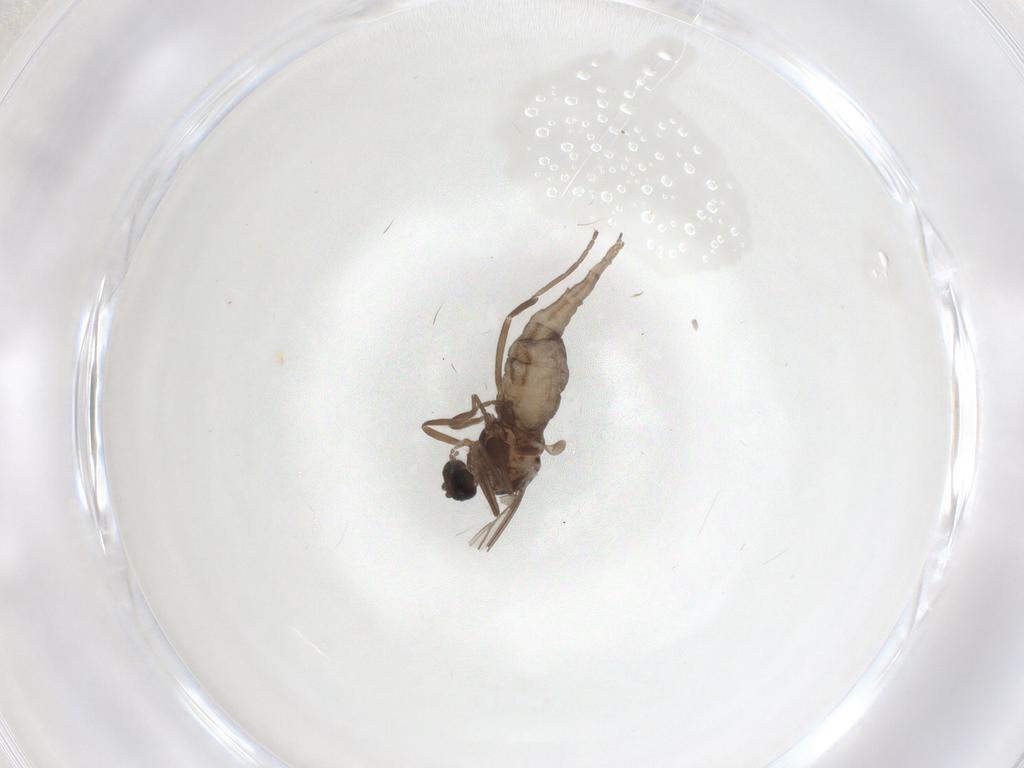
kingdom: Animalia
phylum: Arthropoda
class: Insecta
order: Diptera
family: Cecidomyiidae
